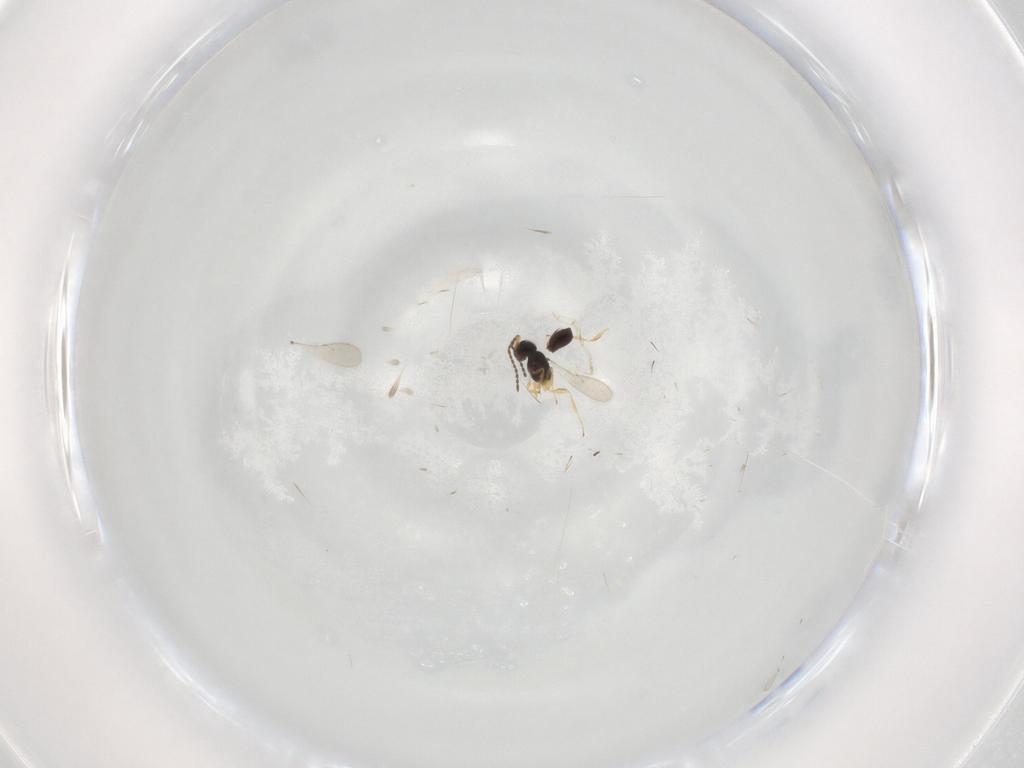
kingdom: Animalia
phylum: Arthropoda
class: Insecta
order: Hymenoptera
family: Scelionidae
